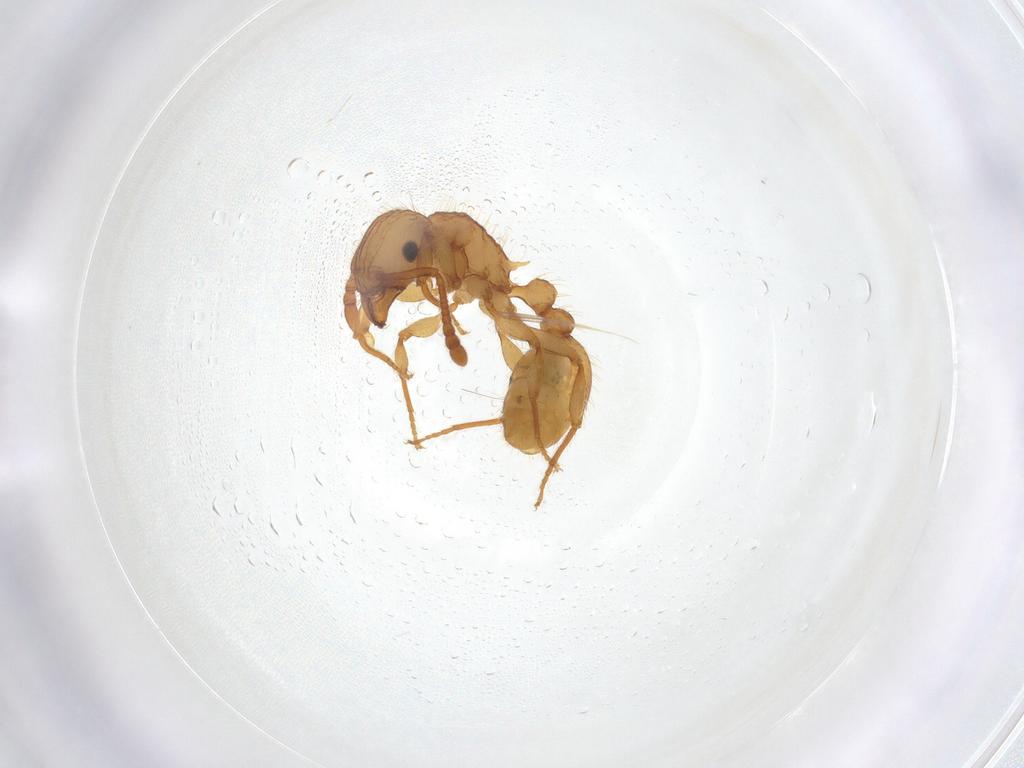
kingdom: Animalia
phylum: Arthropoda
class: Insecta
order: Hymenoptera
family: Formicidae
